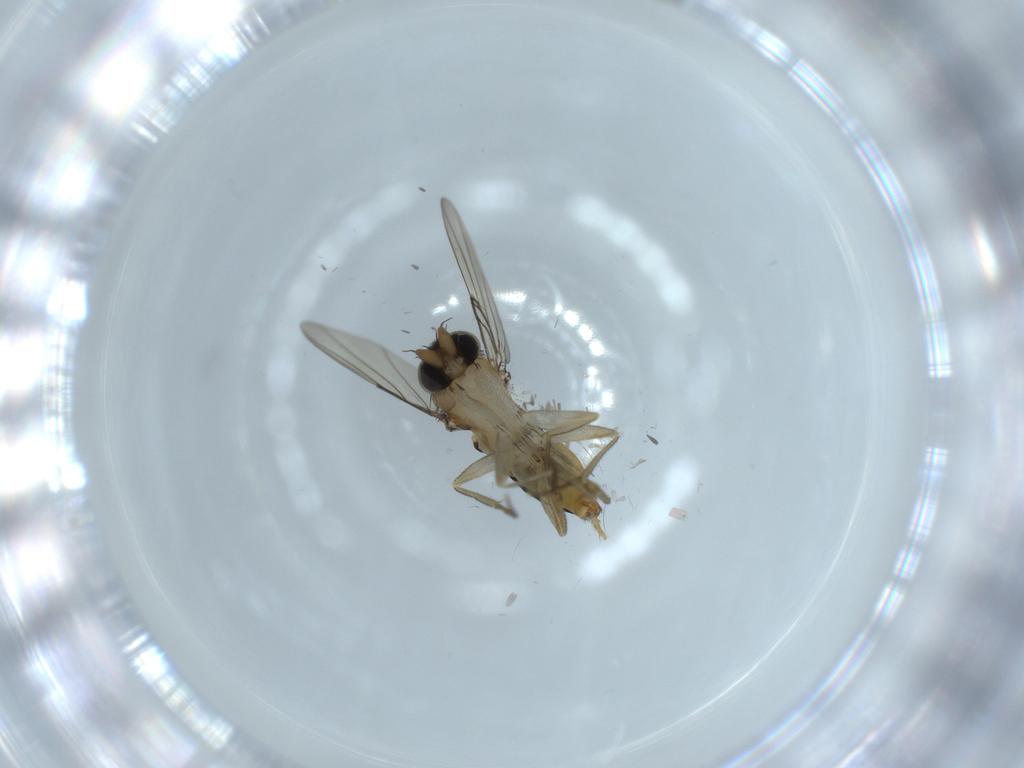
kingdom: Animalia
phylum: Arthropoda
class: Insecta
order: Diptera
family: Phoridae
